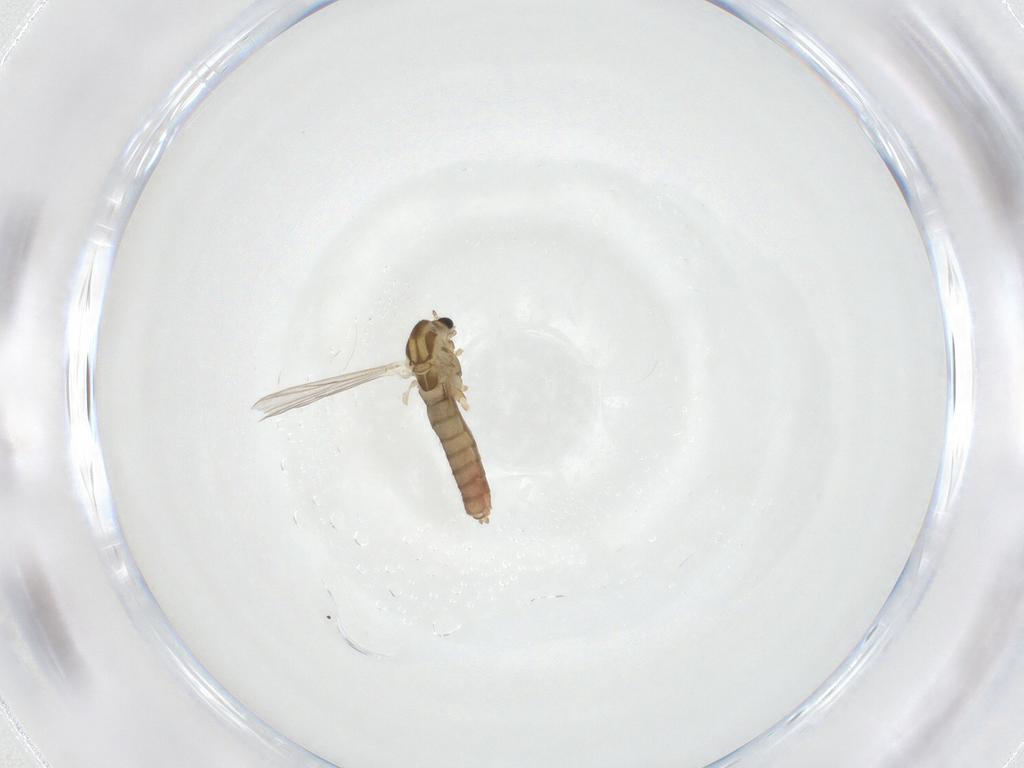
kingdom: Animalia
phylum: Arthropoda
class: Insecta
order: Diptera
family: Chironomidae
